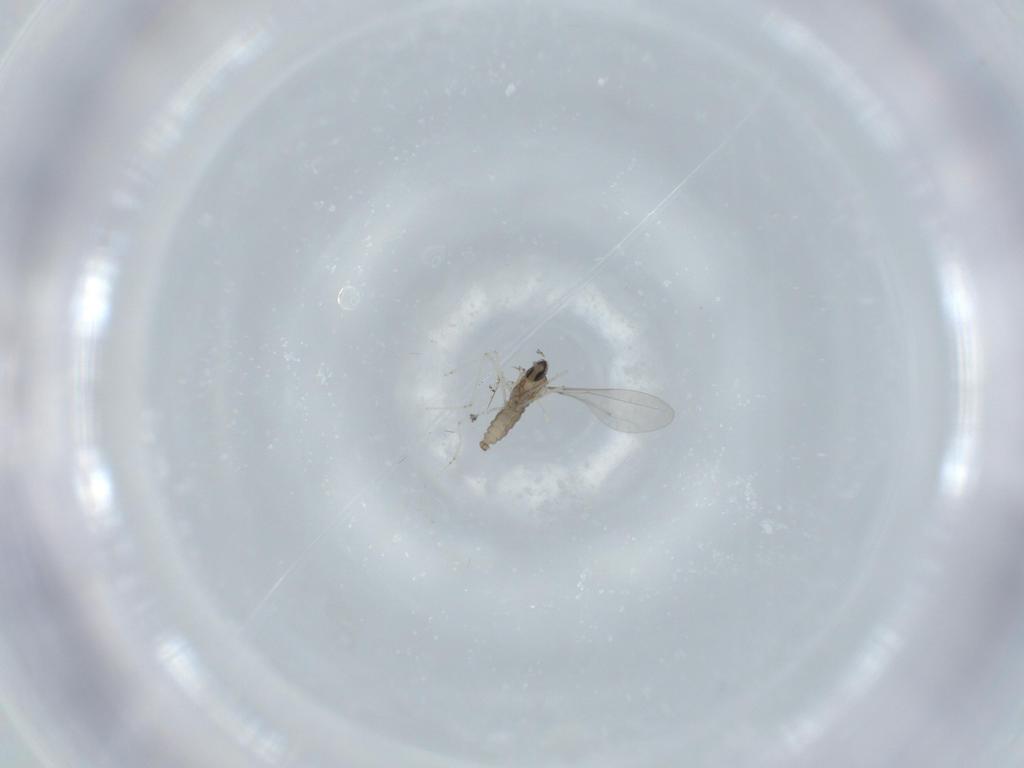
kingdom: Animalia
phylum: Arthropoda
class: Insecta
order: Diptera
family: Cecidomyiidae
